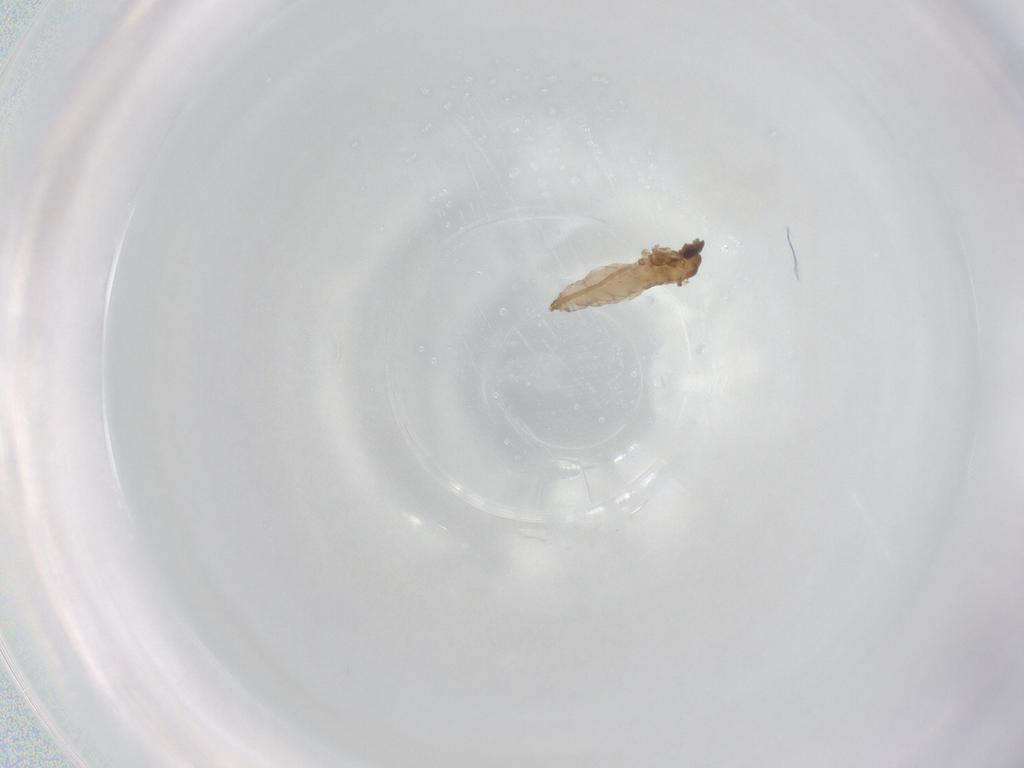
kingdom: Animalia
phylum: Arthropoda
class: Insecta
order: Diptera
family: Cecidomyiidae
